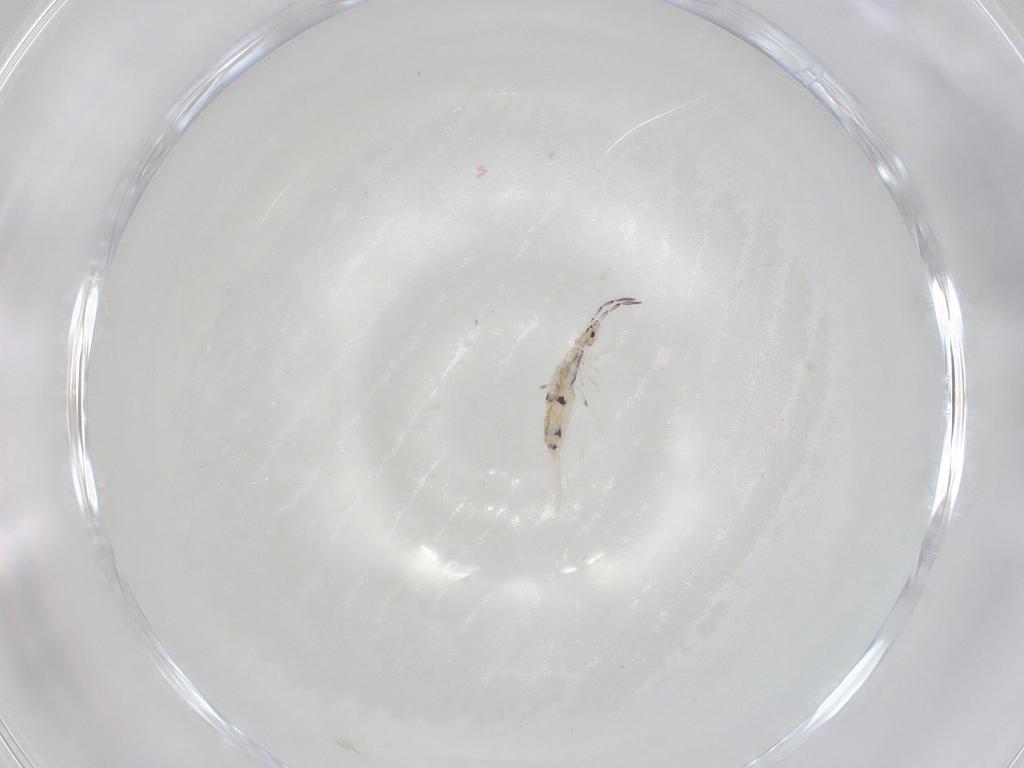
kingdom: Animalia
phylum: Arthropoda
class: Collembola
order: Entomobryomorpha
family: Entomobryidae
